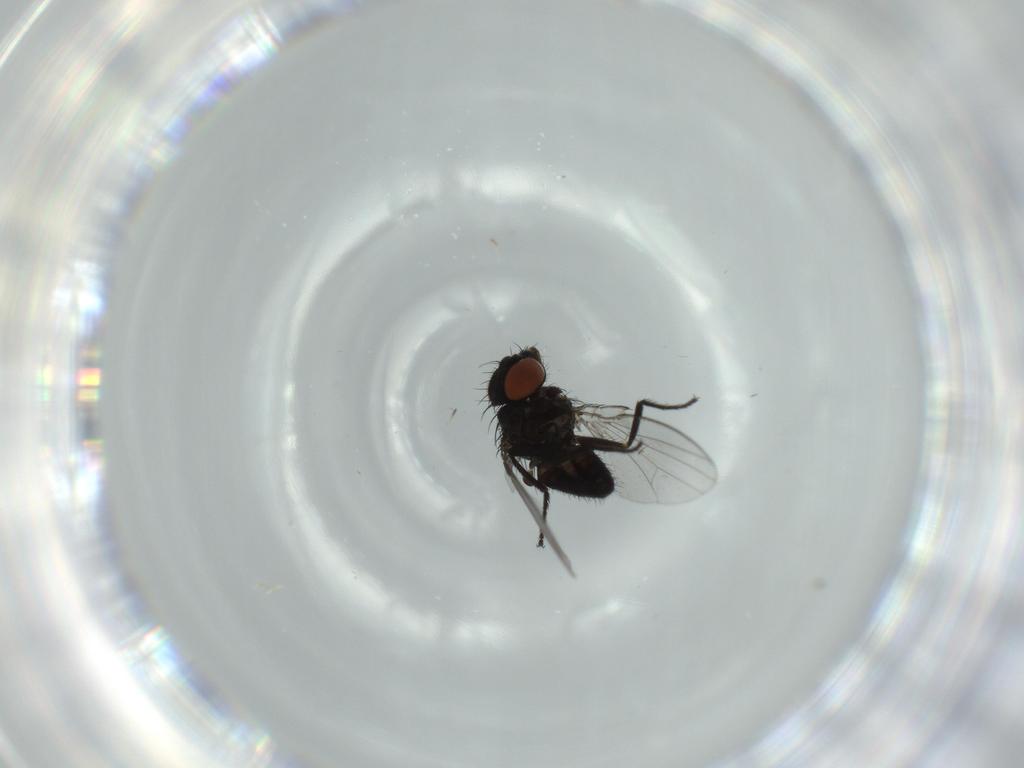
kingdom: Animalia
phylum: Arthropoda
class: Insecta
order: Diptera
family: Milichiidae
